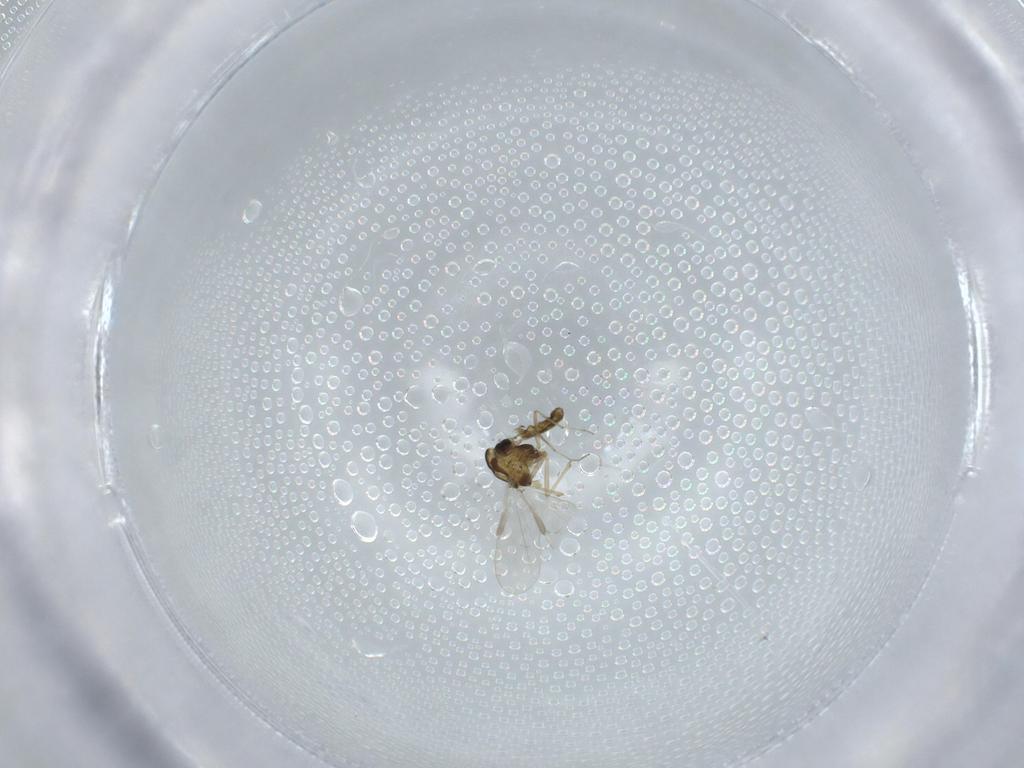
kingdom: Animalia
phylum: Arthropoda
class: Insecta
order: Diptera
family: Chironomidae
